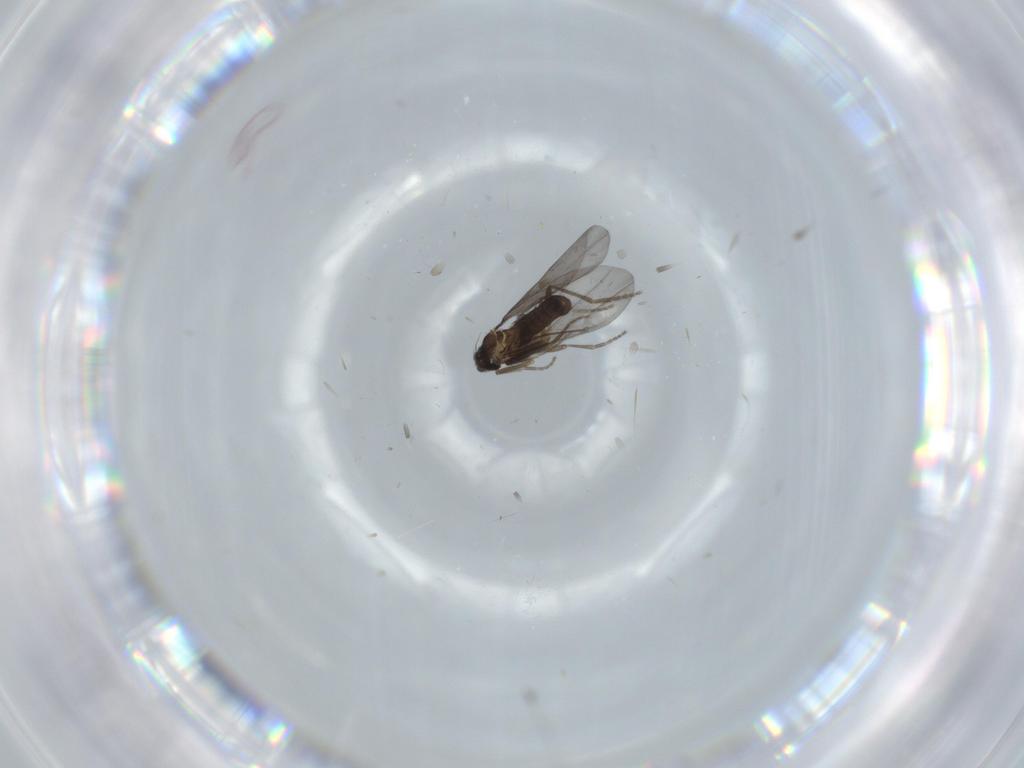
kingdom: Animalia
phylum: Arthropoda
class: Insecta
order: Diptera
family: Ceratopogonidae
